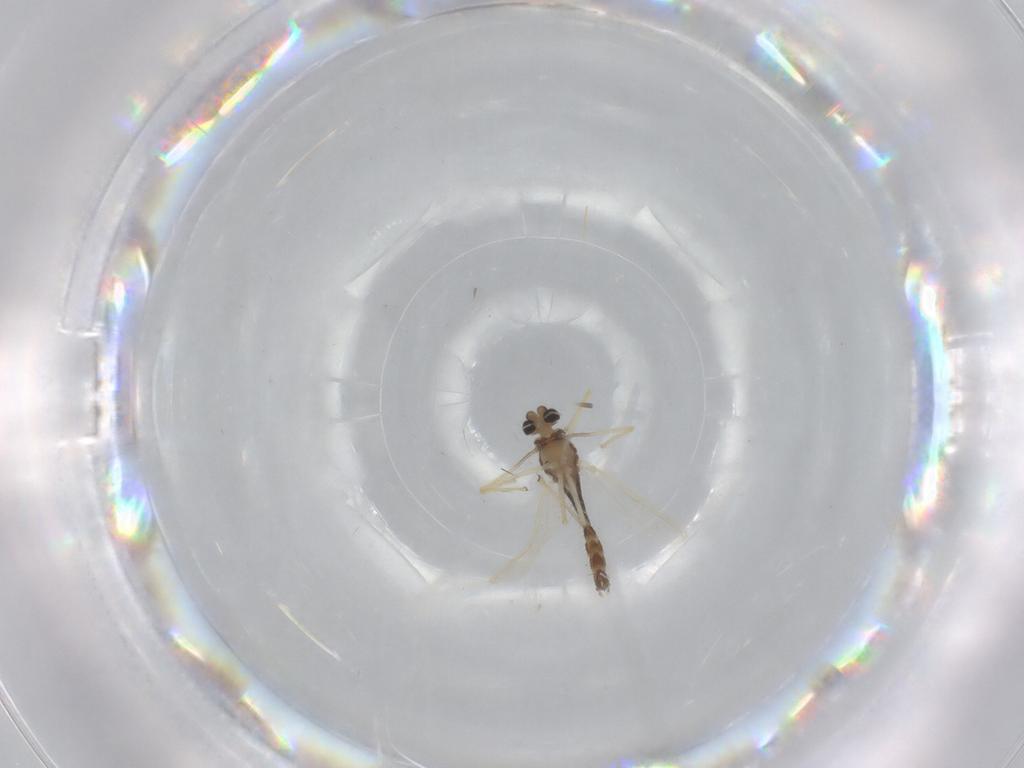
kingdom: Animalia
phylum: Arthropoda
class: Insecta
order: Diptera
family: Chironomidae
